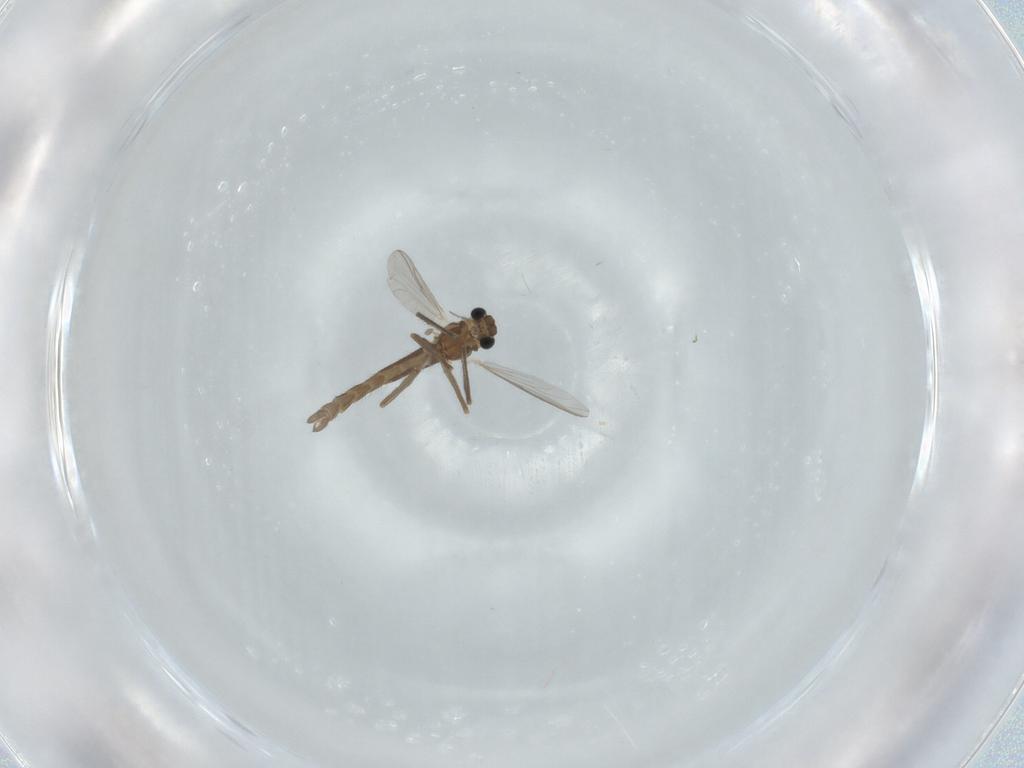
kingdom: Animalia
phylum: Arthropoda
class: Insecta
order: Diptera
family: Chironomidae
